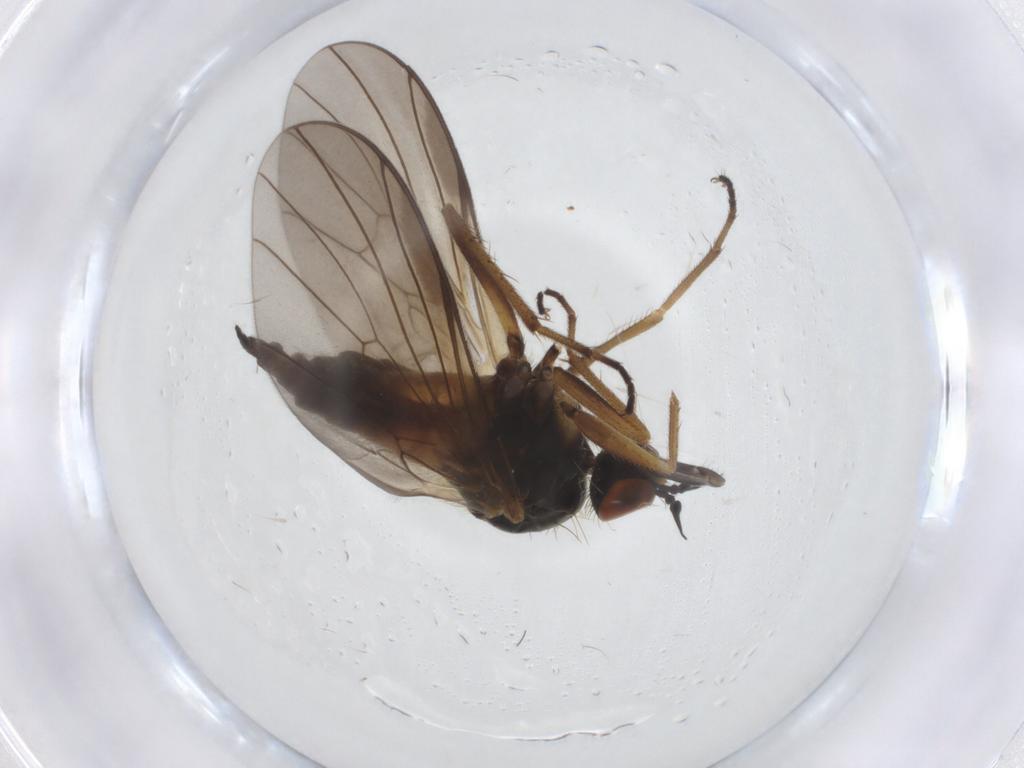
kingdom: Animalia
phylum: Arthropoda
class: Insecta
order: Diptera
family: Empididae
